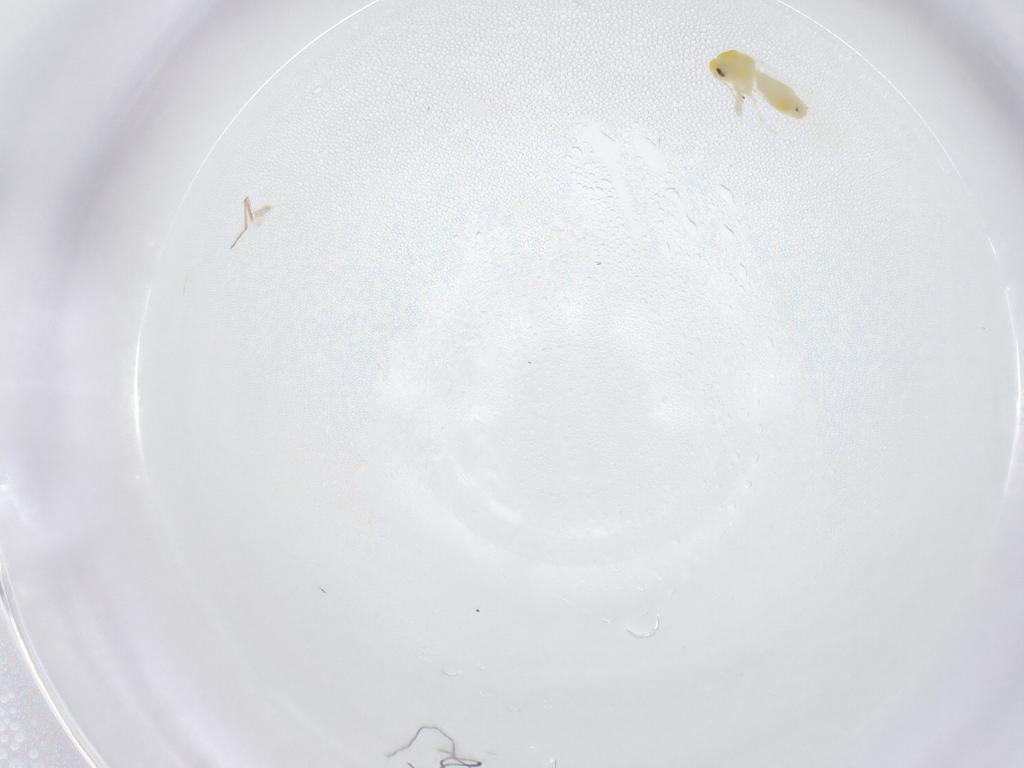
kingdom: Animalia
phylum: Arthropoda
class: Insecta
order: Hemiptera
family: Aleyrodidae
